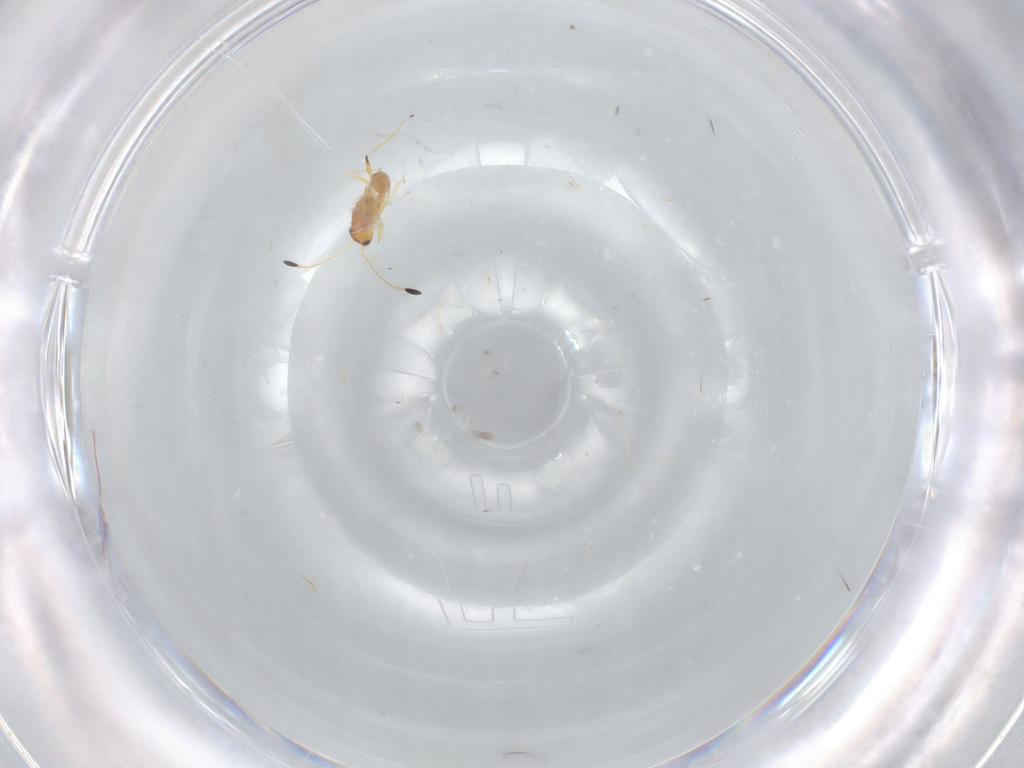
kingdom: Animalia
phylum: Arthropoda
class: Insecta
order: Hymenoptera
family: Mymaridae
